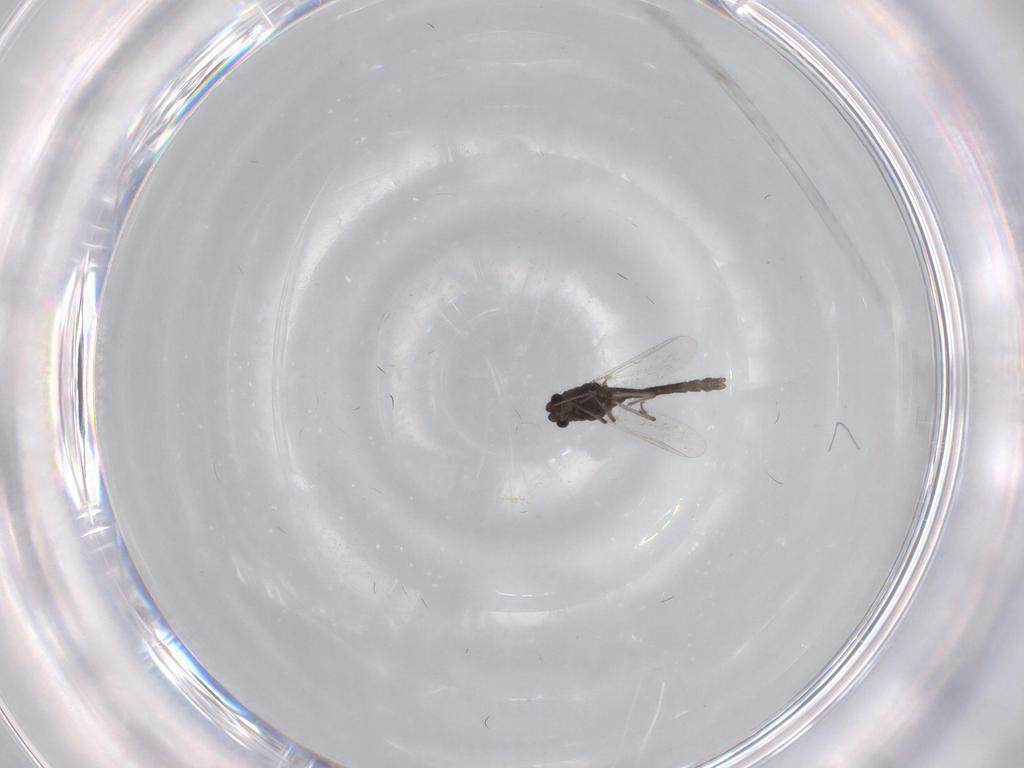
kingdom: Animalia
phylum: Arthropoda
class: Insecta
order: Diptera
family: Chironomidae
